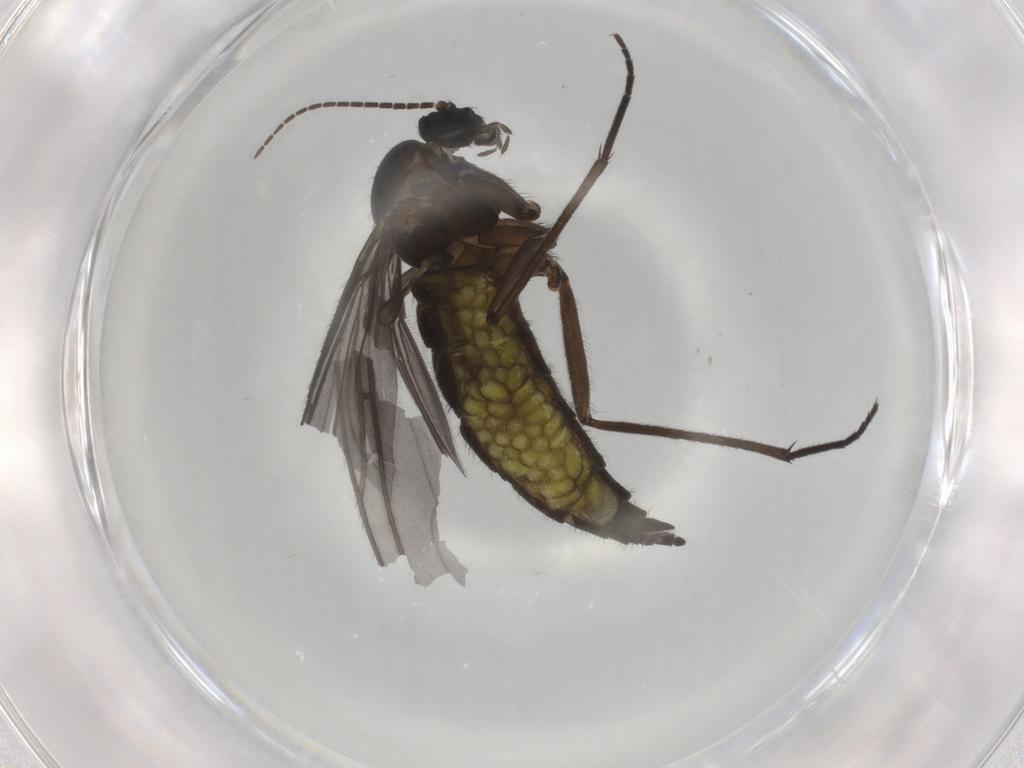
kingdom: Animalia
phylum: Arthropoda
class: Insecta
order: Diptera
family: Sciaridae
